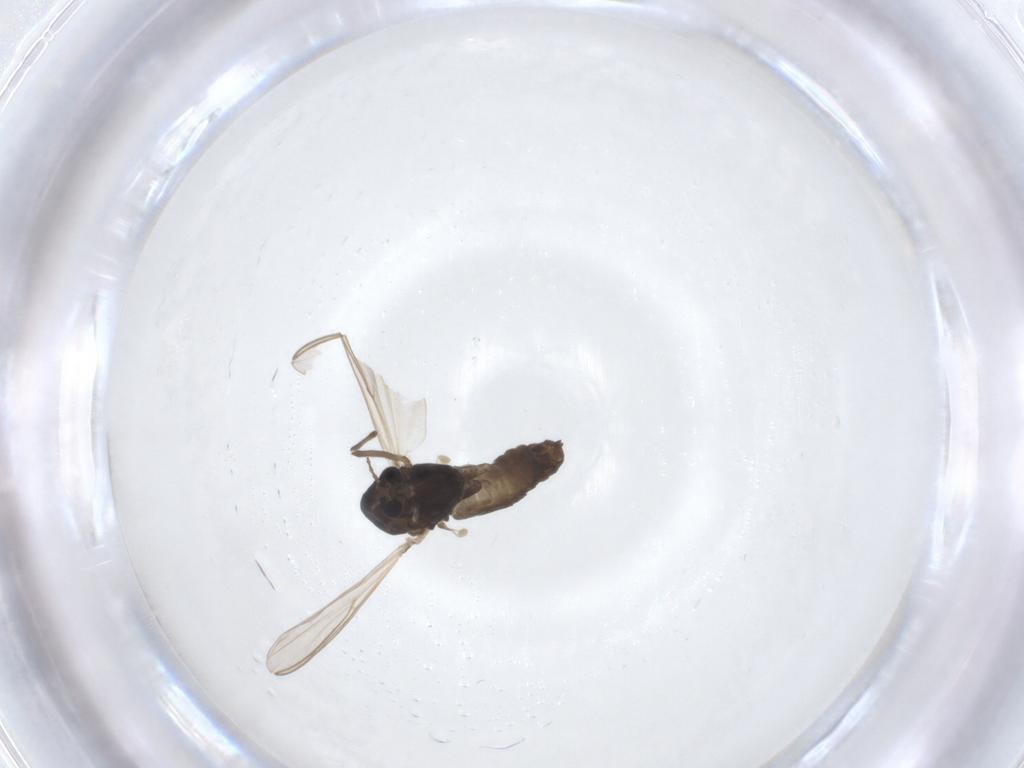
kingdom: Animalia
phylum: Arthropoda
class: Insecta
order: Diptera
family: Chironomidae
